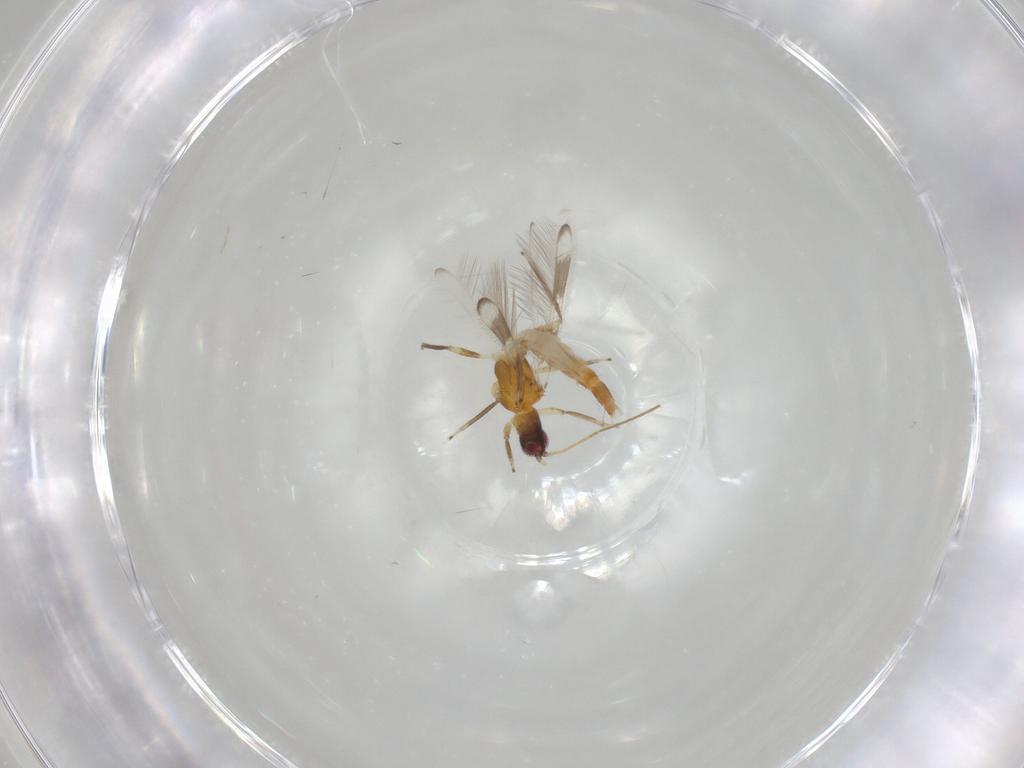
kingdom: Animalia
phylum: Arthropoda
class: Insecta
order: Thysanoptera
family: Aeolothripidae
